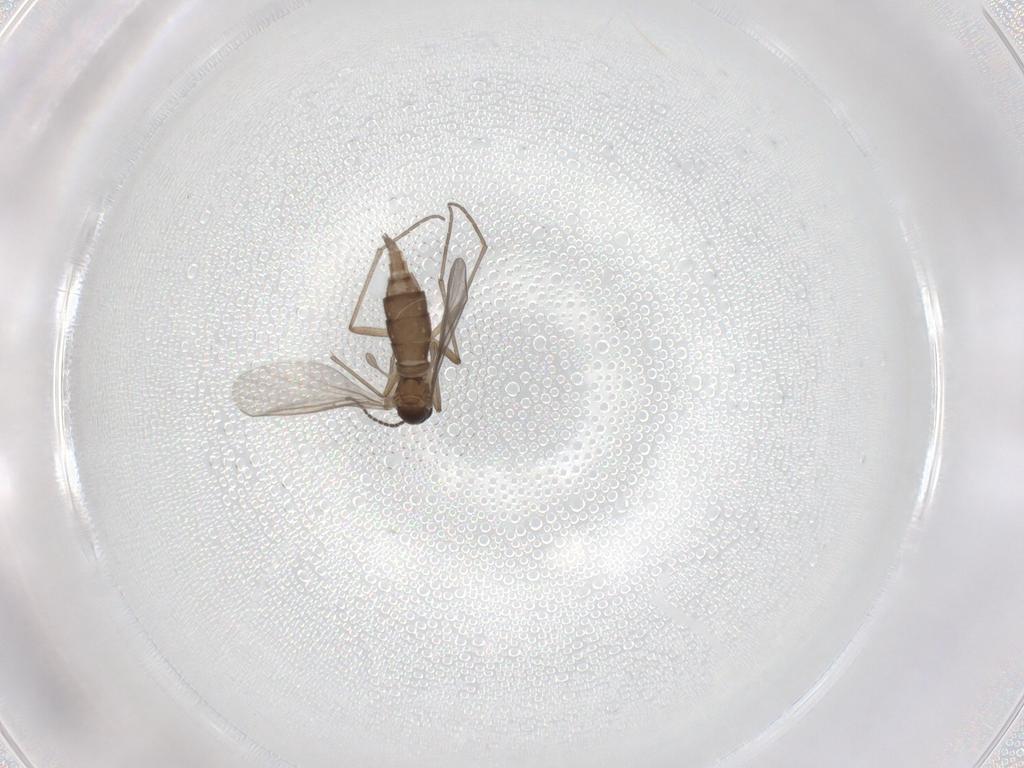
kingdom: Animalia
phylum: Arthropoda
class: Insecta
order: Diptera
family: Sciaridae
